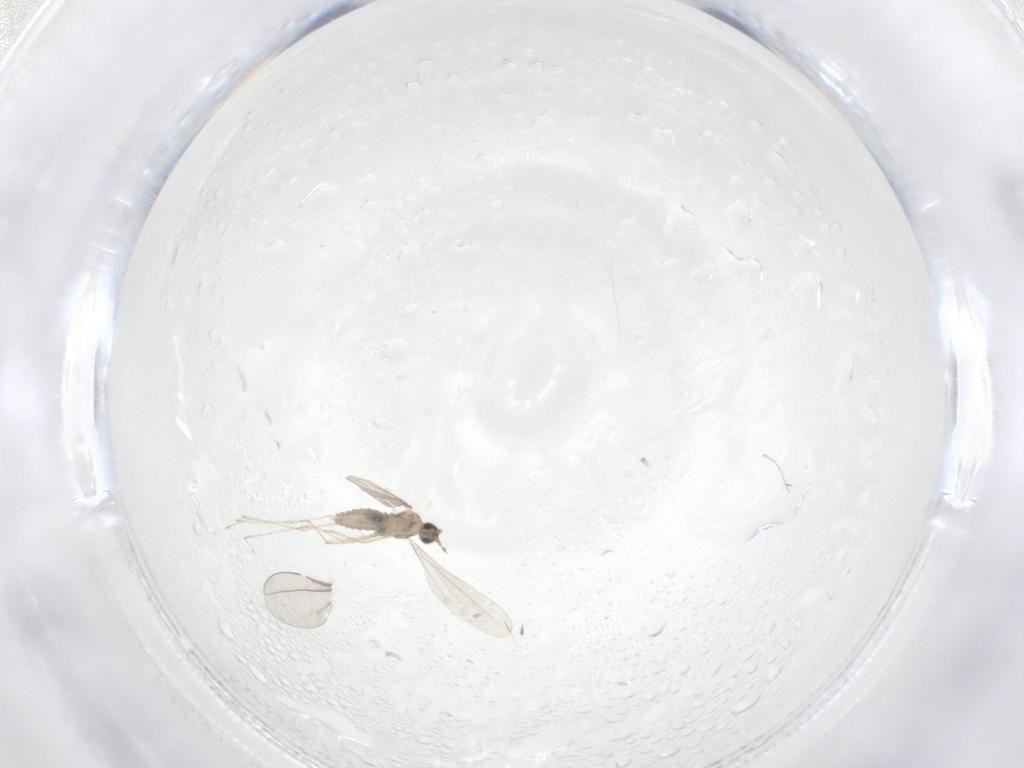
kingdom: Animalia
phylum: Arthropoda
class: Insecta
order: Diptera
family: Cecidomyiidae
